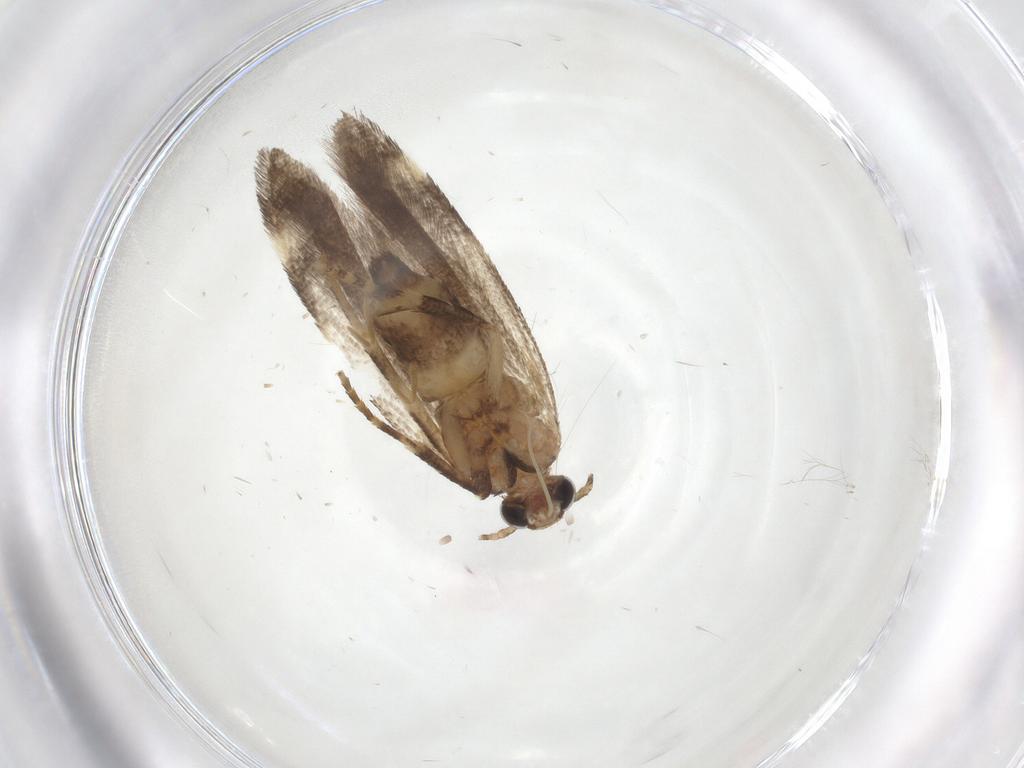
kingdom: Animalia
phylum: Arthropoda
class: Insecta
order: Lepidoptera
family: Gelechiidae
